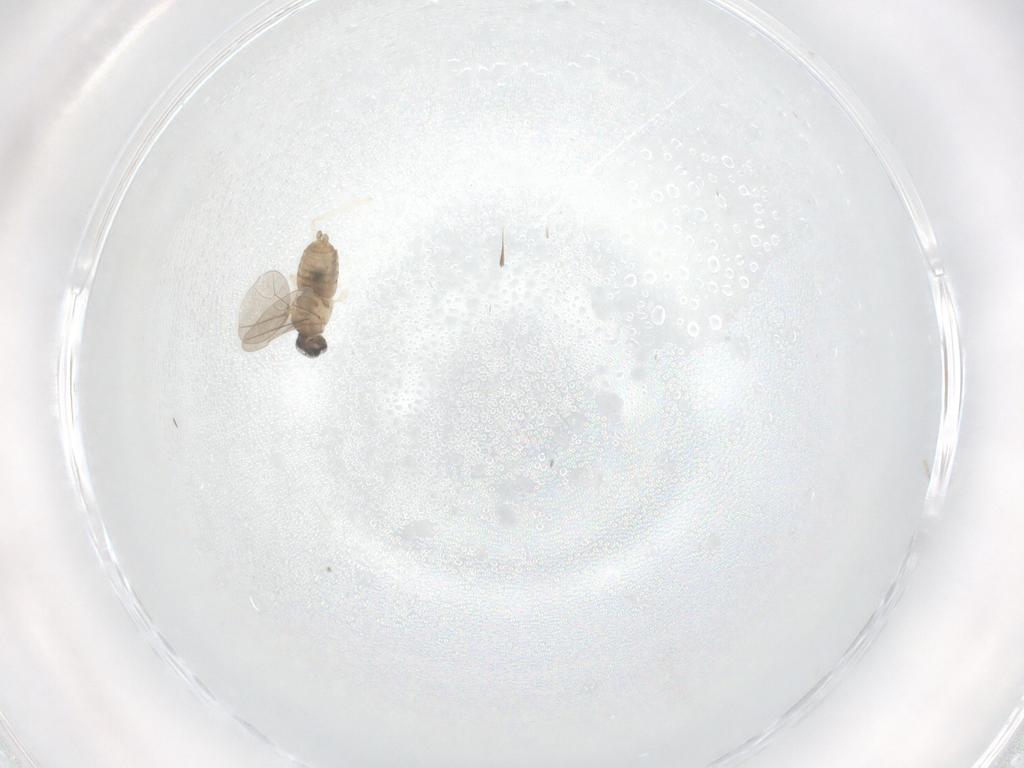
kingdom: Animalia
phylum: Arthropoda
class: Insecta
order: Diptera
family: Cecidomyiidae
